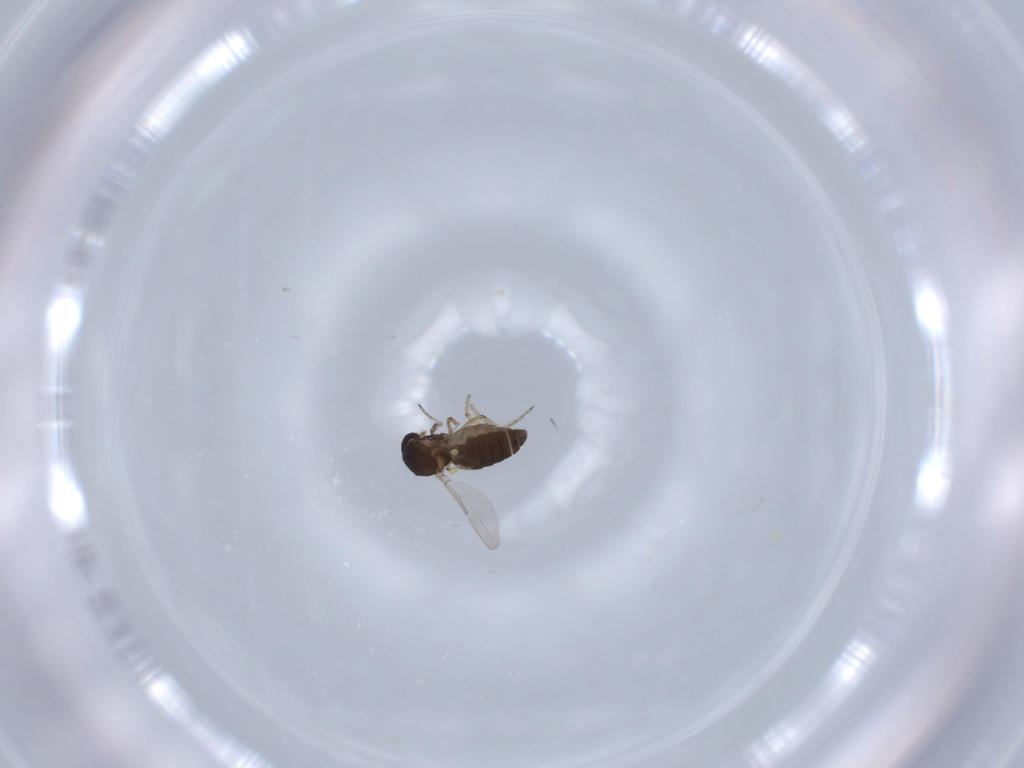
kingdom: Animalia
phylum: Arthropoda
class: Insecta
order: Diptera
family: Ceratopogonidae
